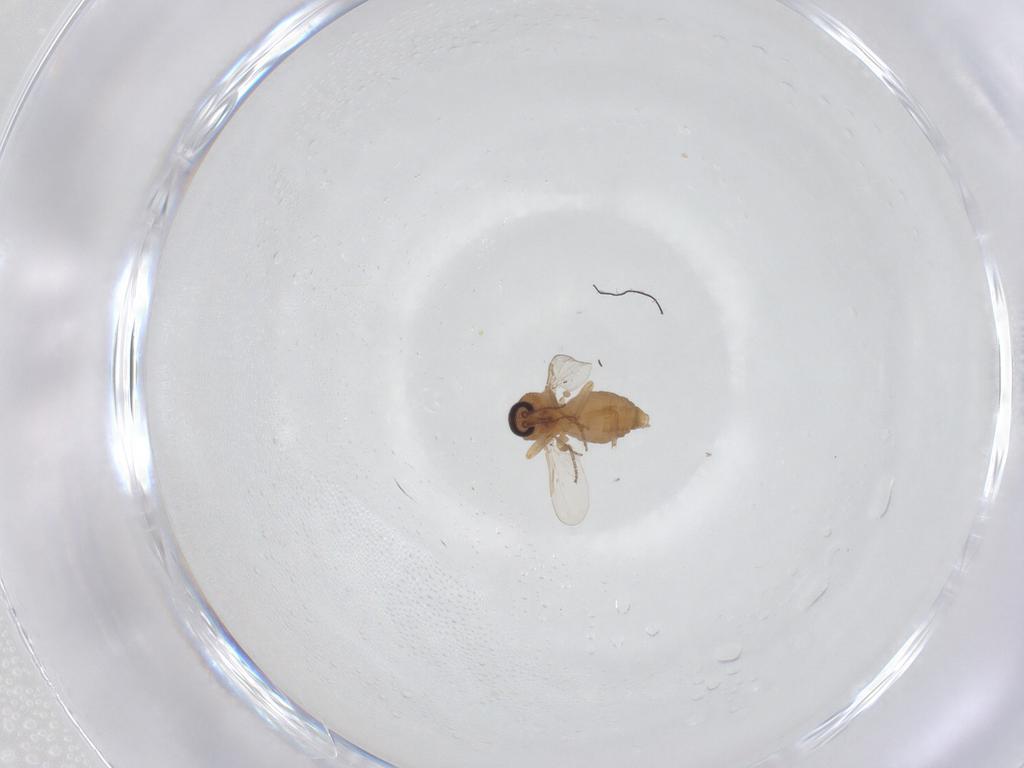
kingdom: Animalia
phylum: Arthropoda
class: Insecta
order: Diptera
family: Ceratopogonidae
